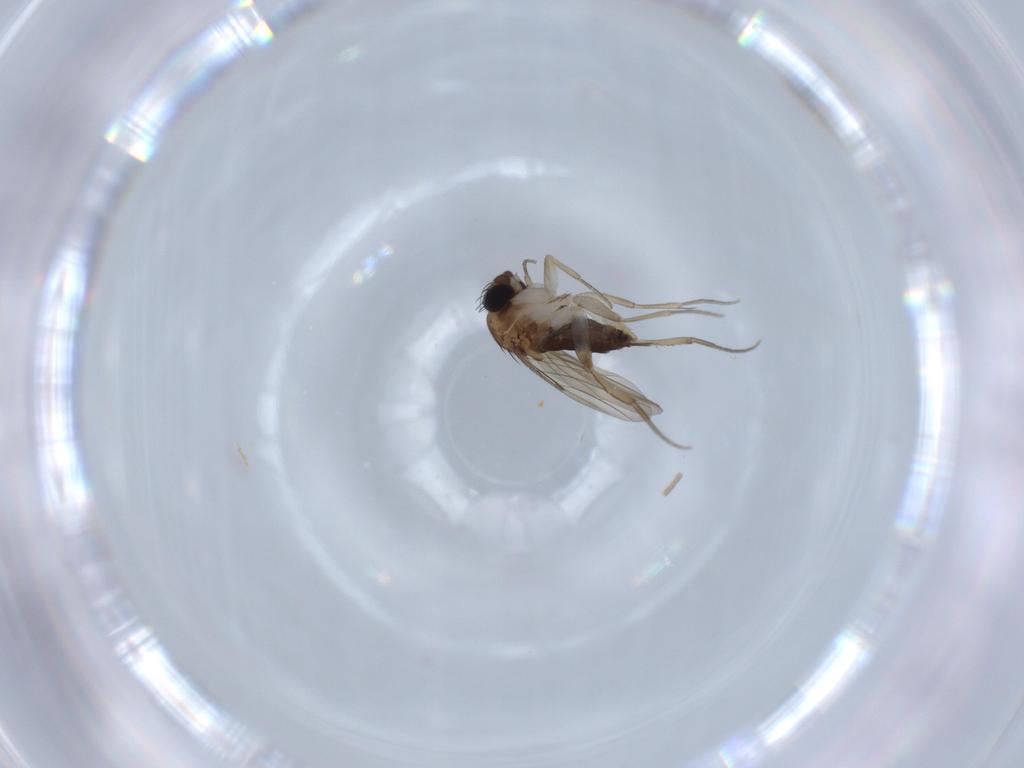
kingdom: Animalia
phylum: Arthropoda
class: Insecta
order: Diptera
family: Phoridae
